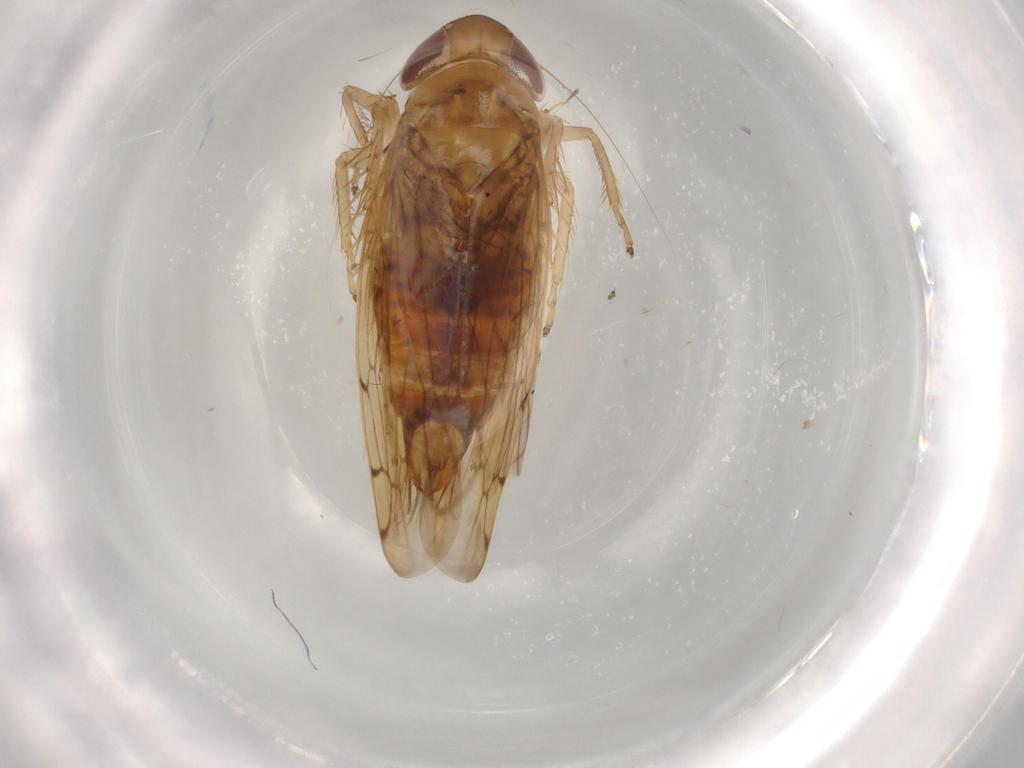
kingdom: Animalia
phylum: Arthropoda
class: Insecta
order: Hemiptera
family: Cicadellidae
